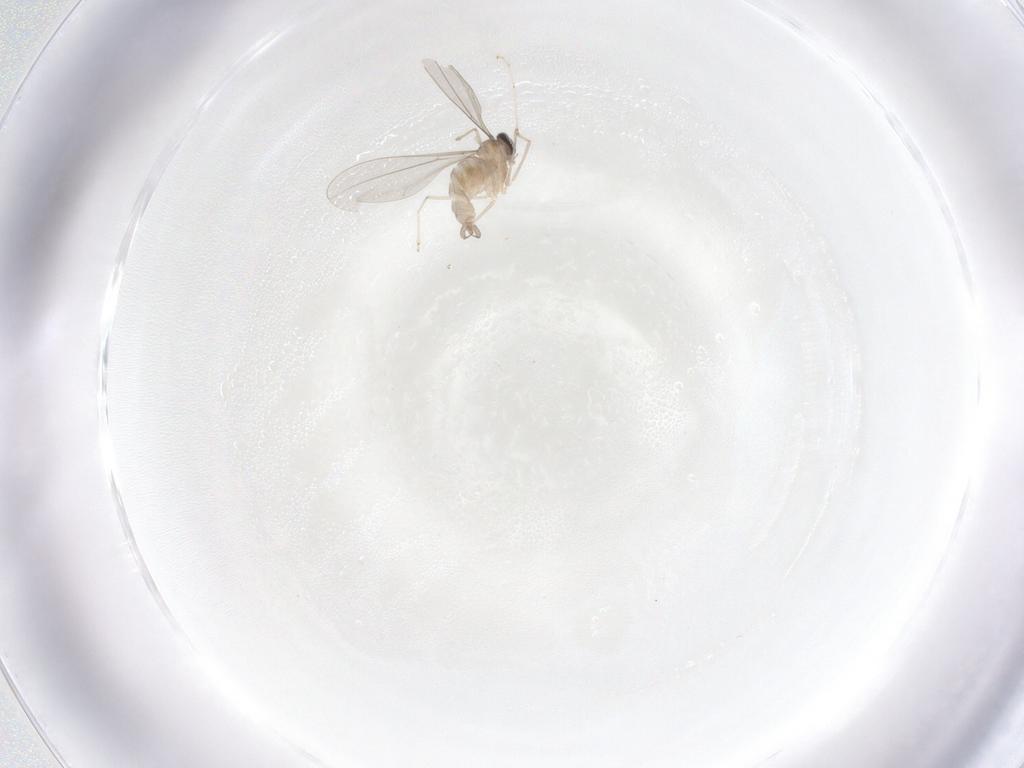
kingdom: Animalia
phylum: Arthropoda
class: Insecta
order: Diptera
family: Cecidomyiidae
